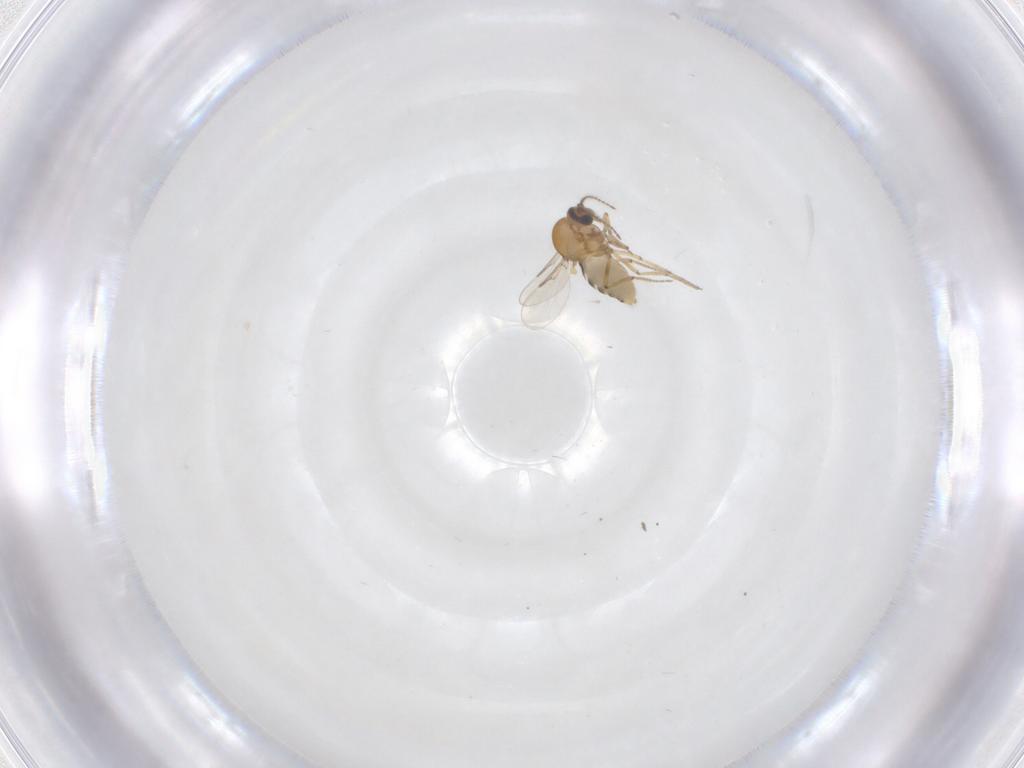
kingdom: Animalia
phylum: Arthropoda
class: Insecta
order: Diptera
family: Ceratopogonidae
